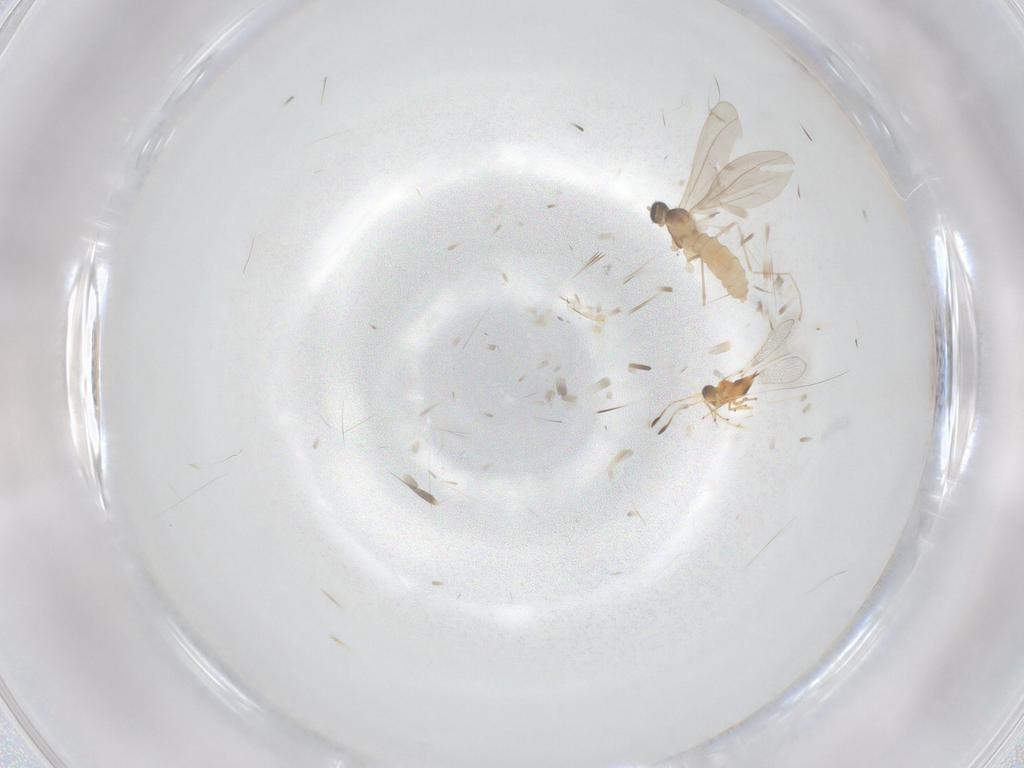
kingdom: Animalia
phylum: Arthropoda
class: Insecta
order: Diptera
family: Cecidomyiidae
